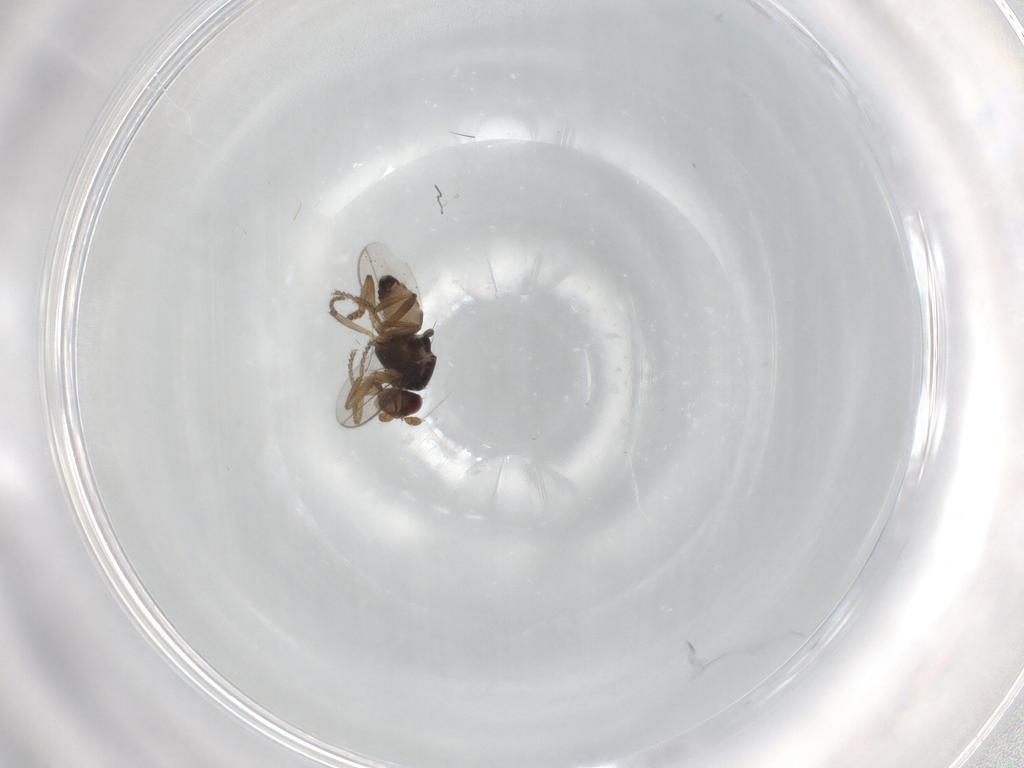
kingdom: Animalia
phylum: Arthropoda
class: Insecta
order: Diptera
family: Sphaeroceridae
